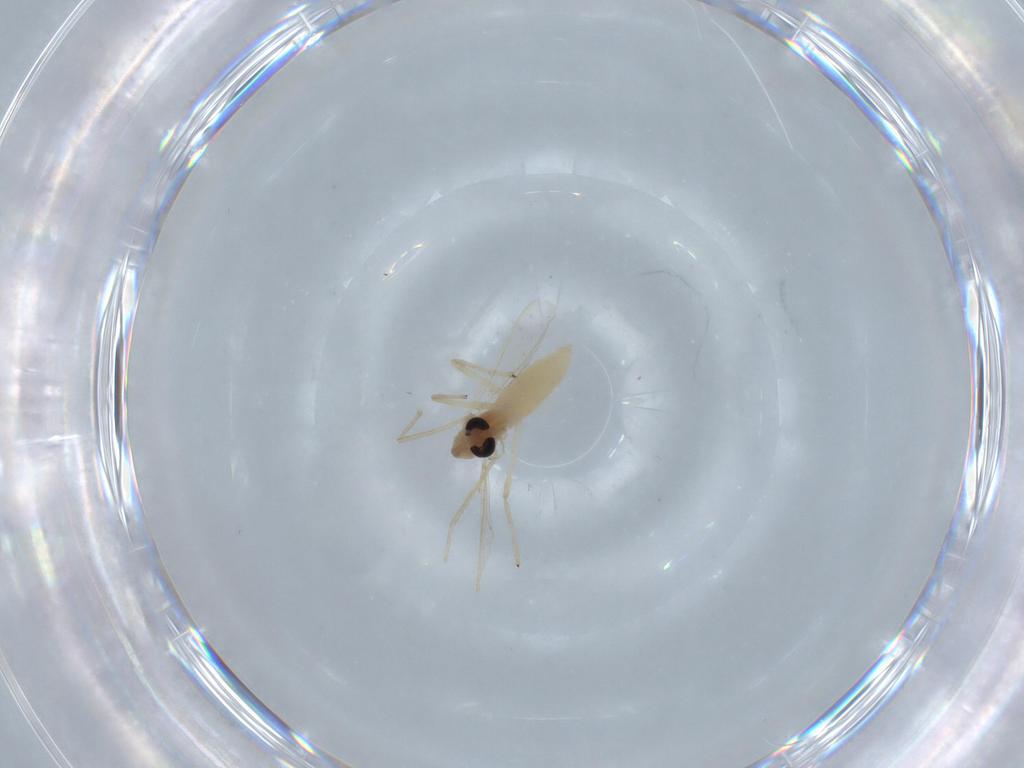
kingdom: Animalia
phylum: Arthropoda
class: Insecta
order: Diptera
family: Chironomidae
